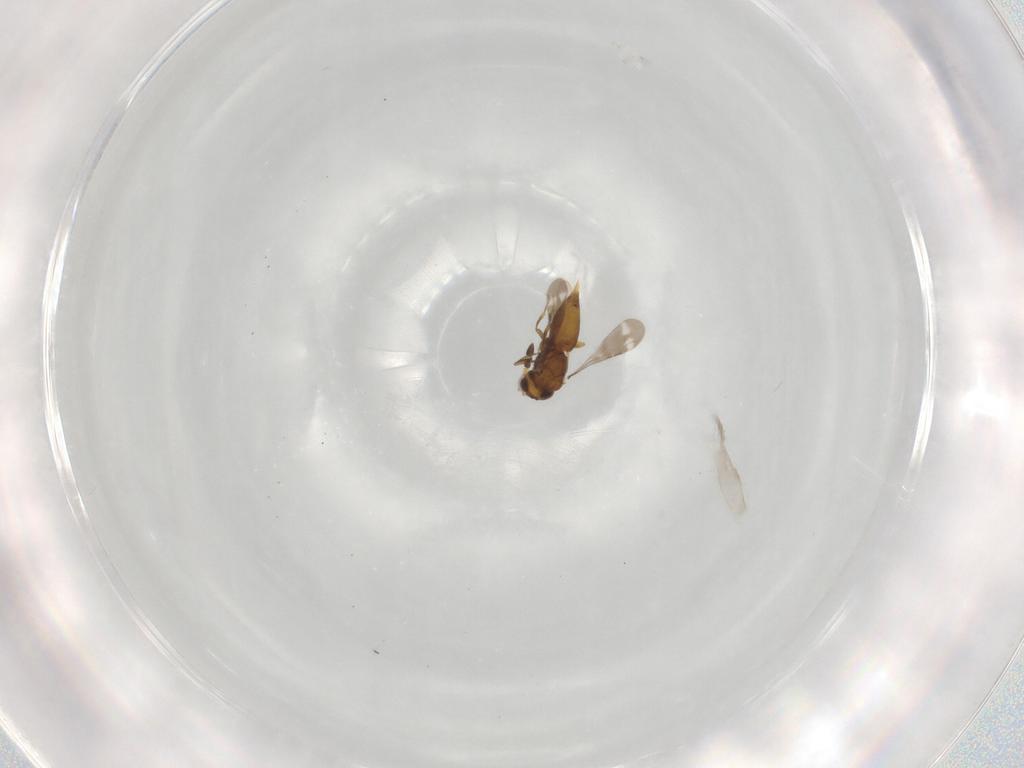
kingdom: Animalia
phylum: Arthropoda
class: Insecta
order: Hymenoptera
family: Ceraphronidae
